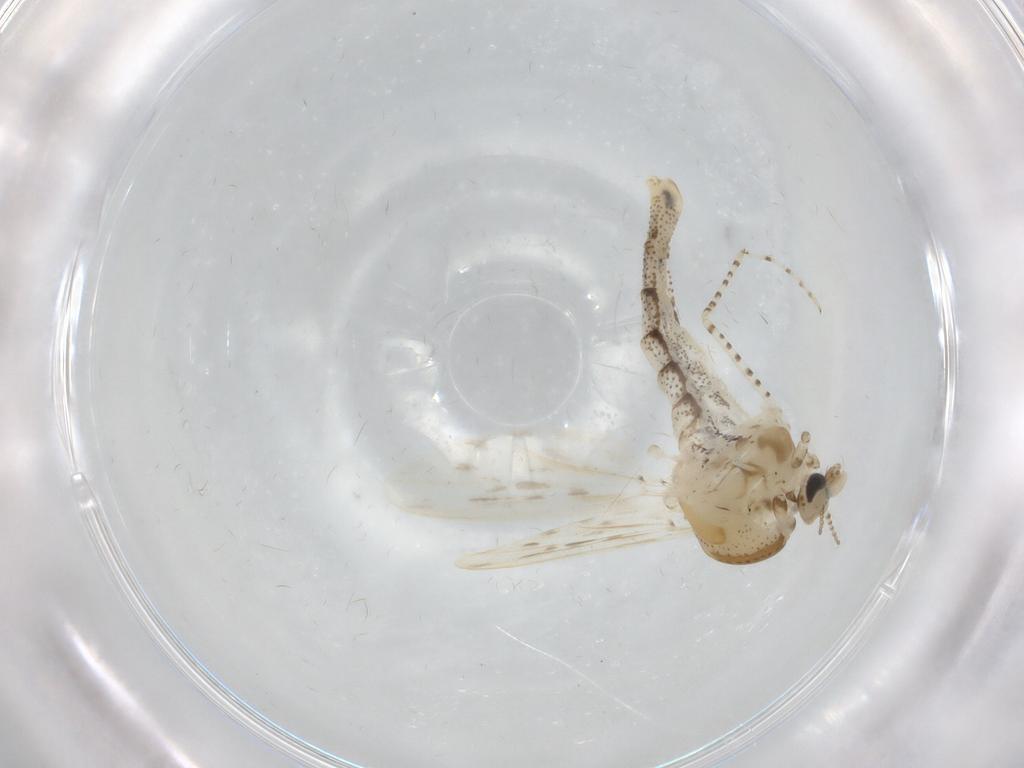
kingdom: Animalia
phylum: Arthropoda
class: Insecta
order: Diptera
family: Chaoboridae
